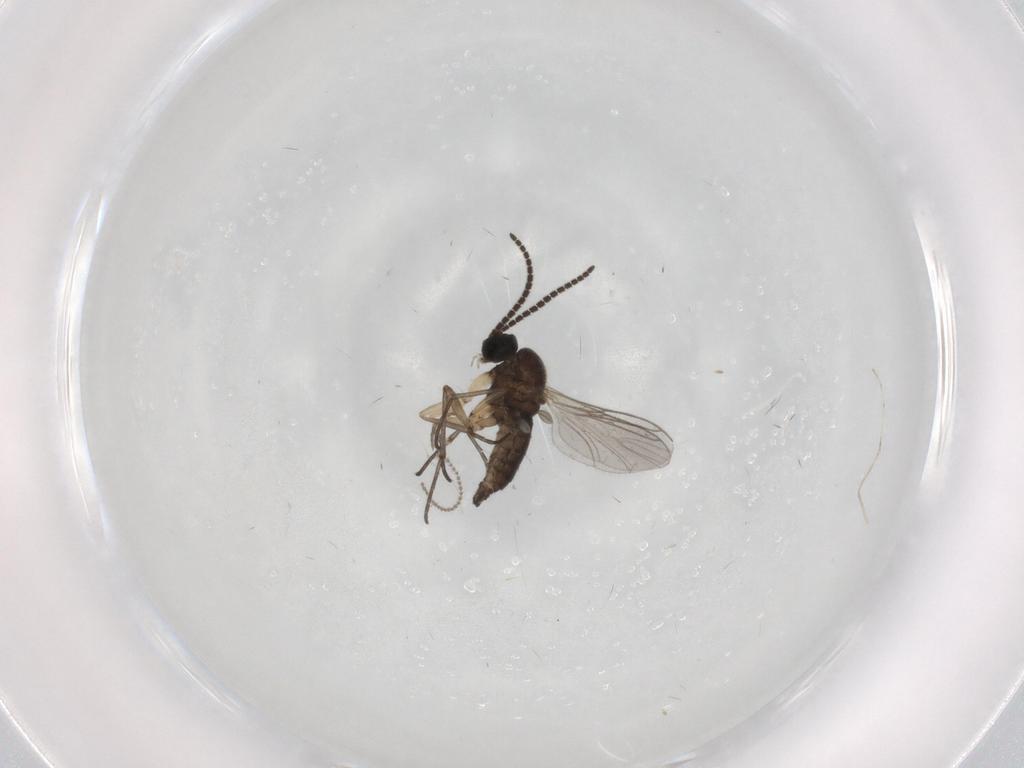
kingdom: Animalia
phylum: Arthropoda
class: Insecta
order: Diptera
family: Sciaridae
